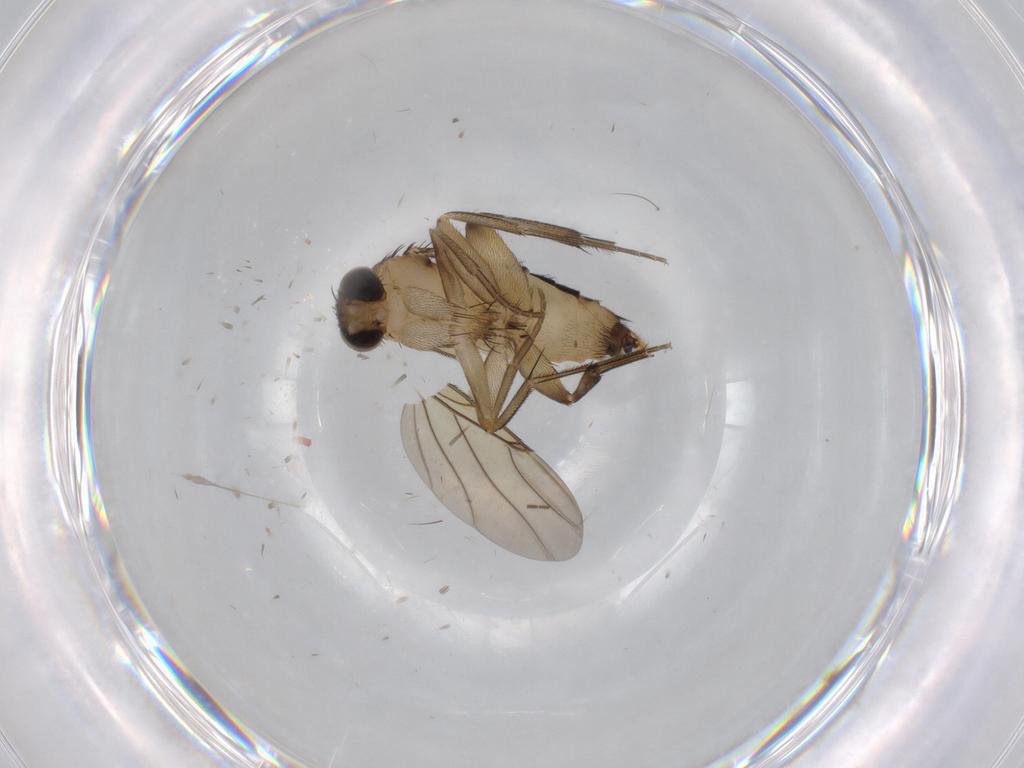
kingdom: Animalia
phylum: Arthropoda
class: Insecta
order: Diptera
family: Phoridae
